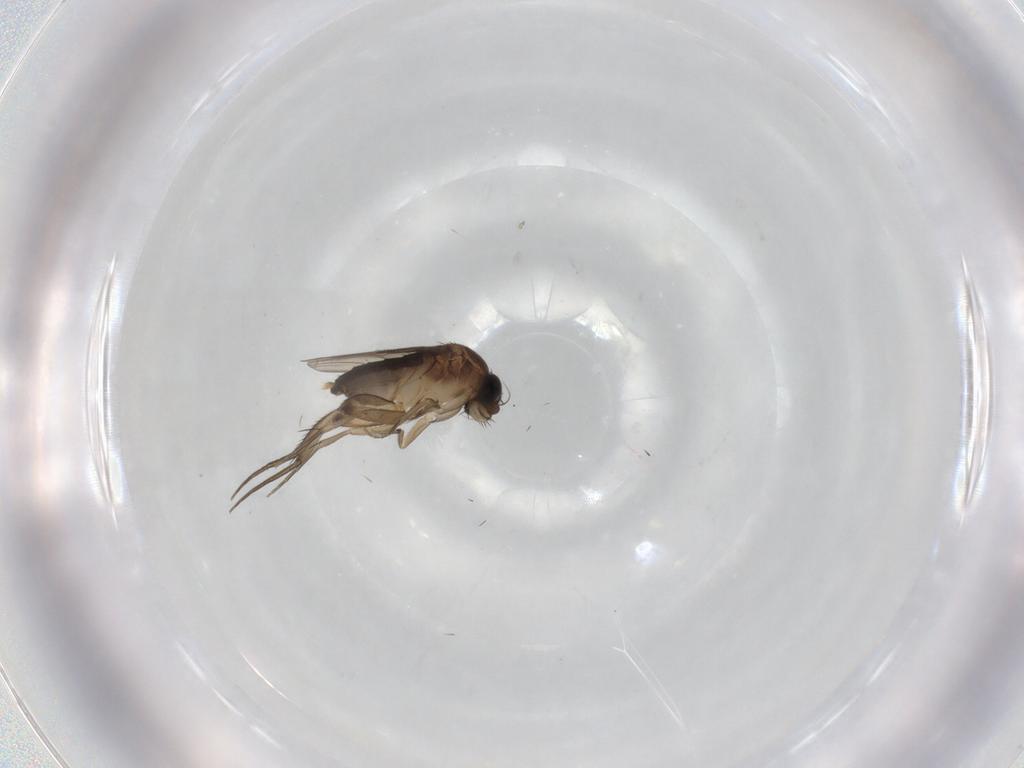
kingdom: Animalia
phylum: Arthropoda
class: Insecta
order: Diptera
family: Phoridae
